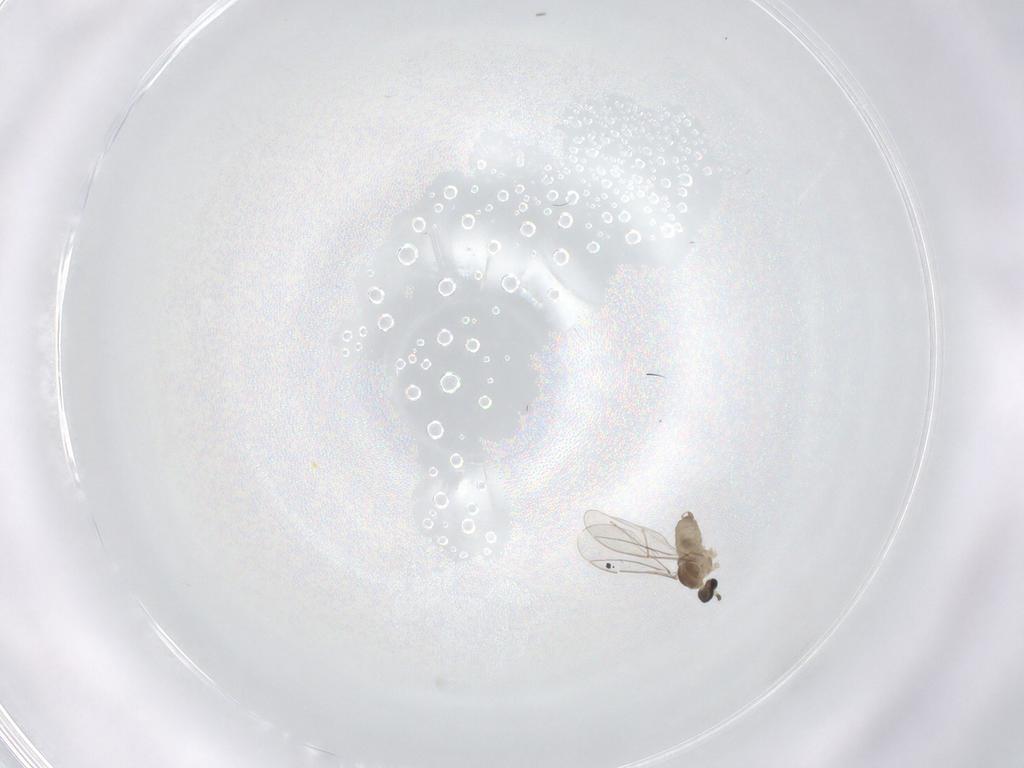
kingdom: Animalia
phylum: Arthropoda
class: Insecta
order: Diptera
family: Cecidomyiidae
